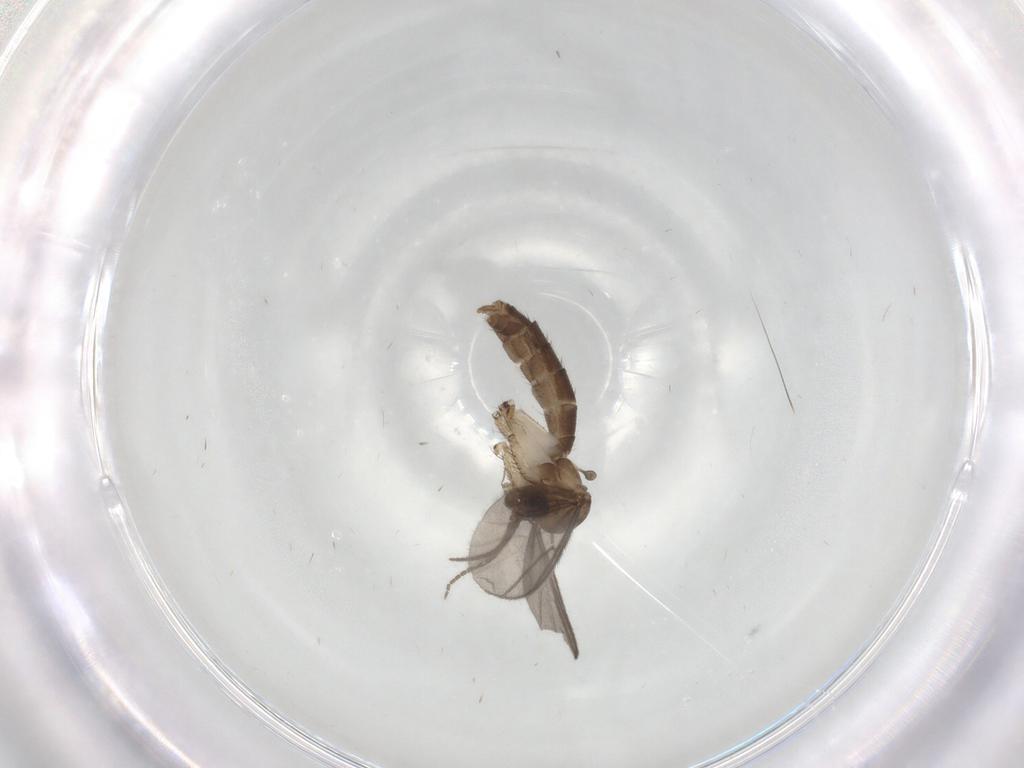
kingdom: Animalia
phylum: Arthropoda
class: Insecta
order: Diptera
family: Mycetophilidae
